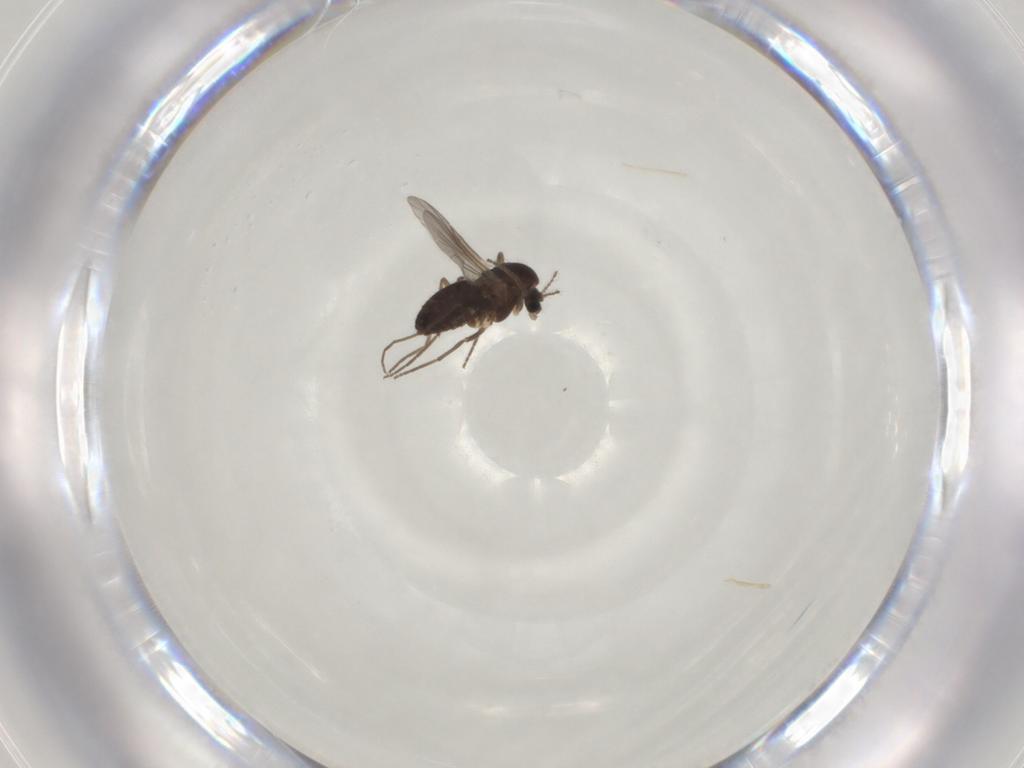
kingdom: Animalia
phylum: Arthropoda
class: Insecta
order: Diptera
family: Chironomidae
